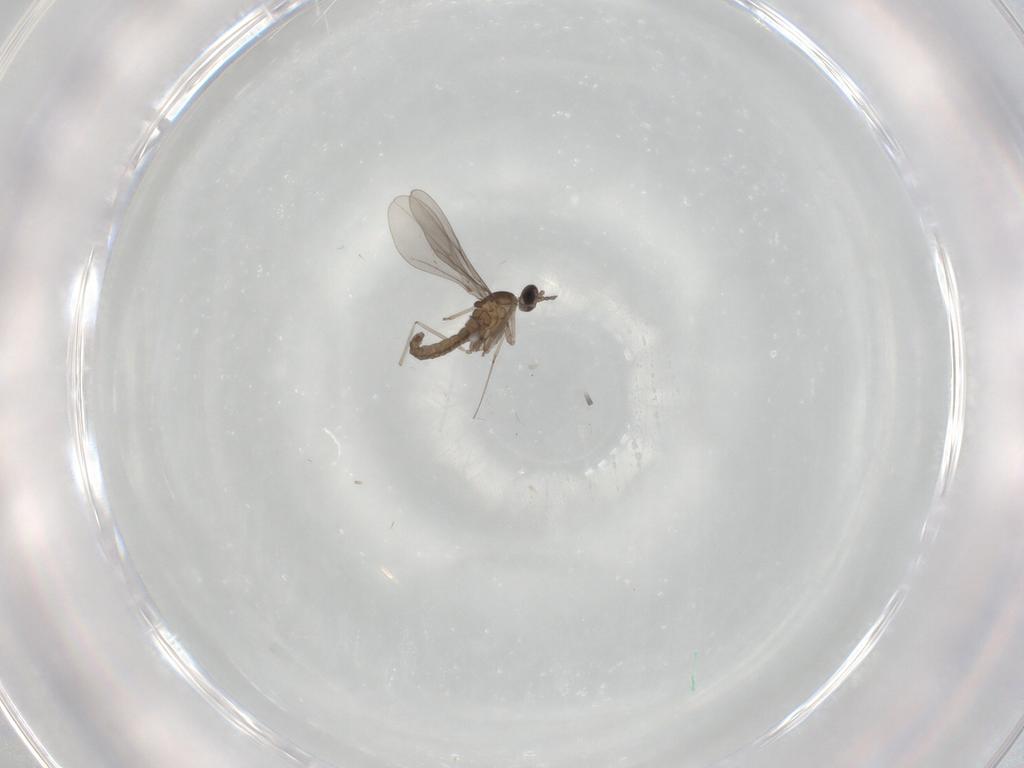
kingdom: Animalia
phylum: Arthropoda
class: Insecta
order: Diptera
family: Cecidomyiidae
